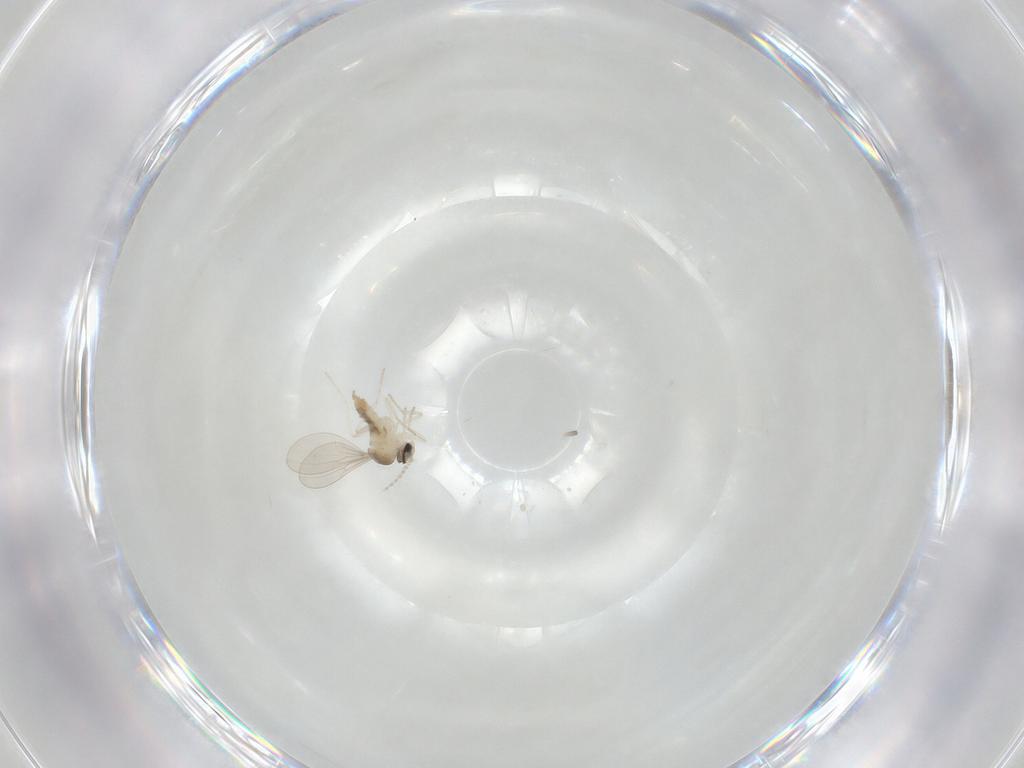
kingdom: Animalia
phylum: Arthropoda
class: Insecta
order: Diptera
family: Cecidomyiidae
